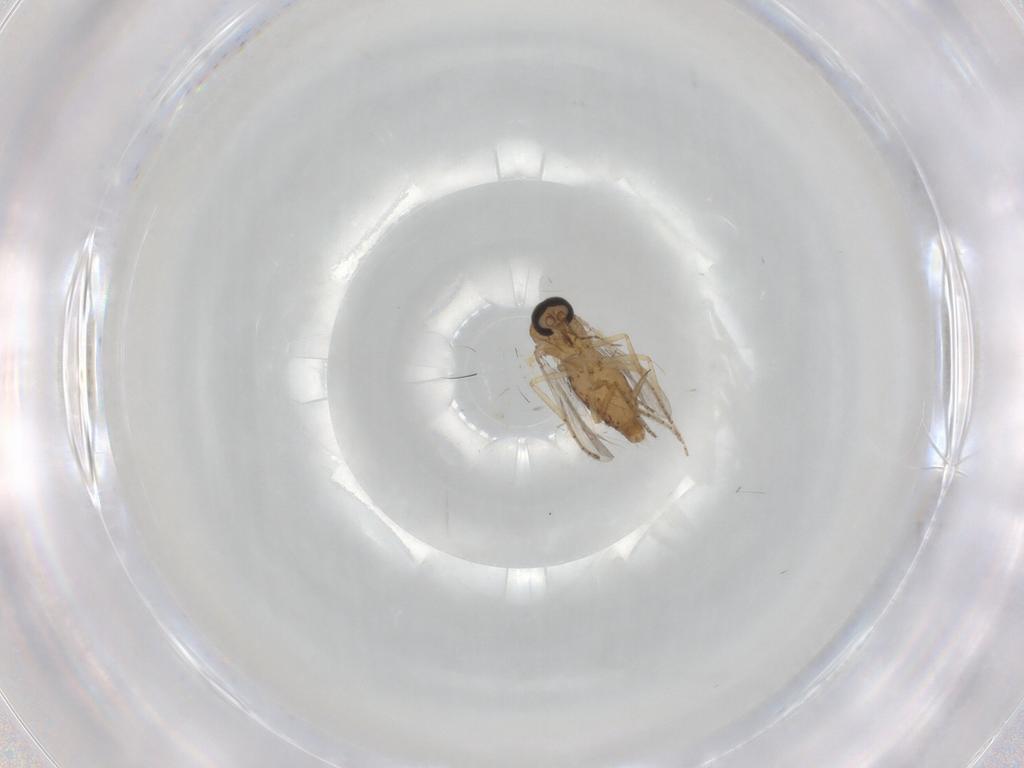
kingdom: Animalia
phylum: Arthropoda
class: Insecta
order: Diptera
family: Ceratopogonidae
